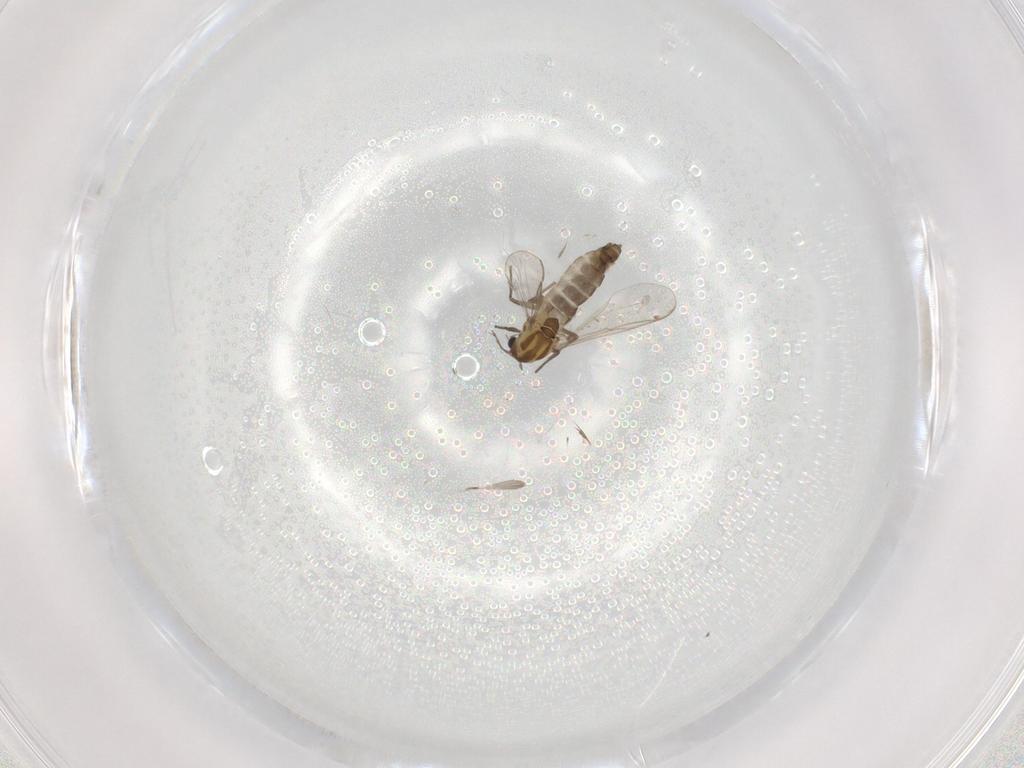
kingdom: Animalia
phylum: Arthropoda
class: Insecta
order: Diptera
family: Chironomidae
